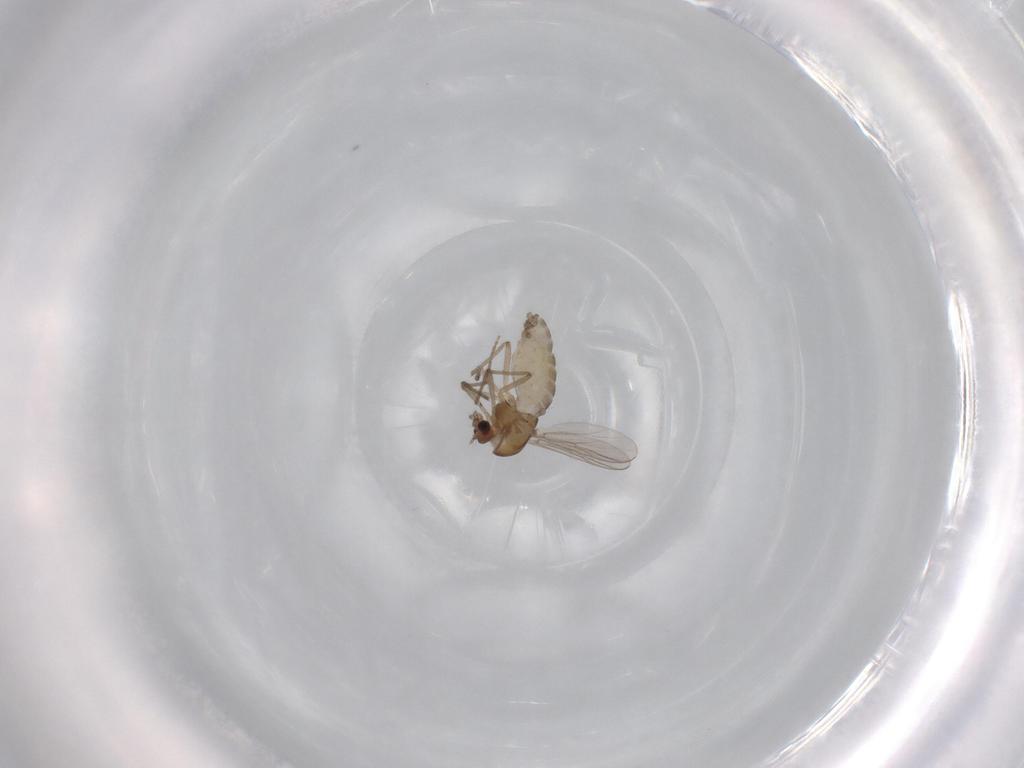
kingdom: Animalia
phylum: Arthropoda
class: Insecta
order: Diptera
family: Chironomidae
